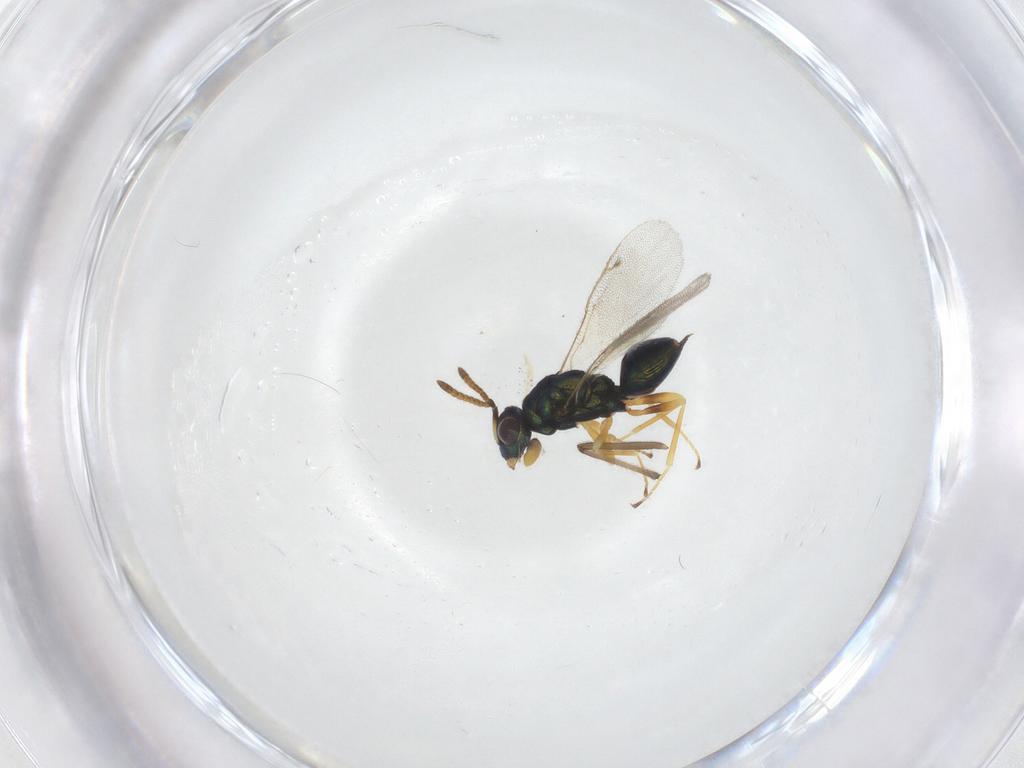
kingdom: Animalia
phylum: Arthropoda
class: Insecta
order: Hymenoptera
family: Pteromalidae
